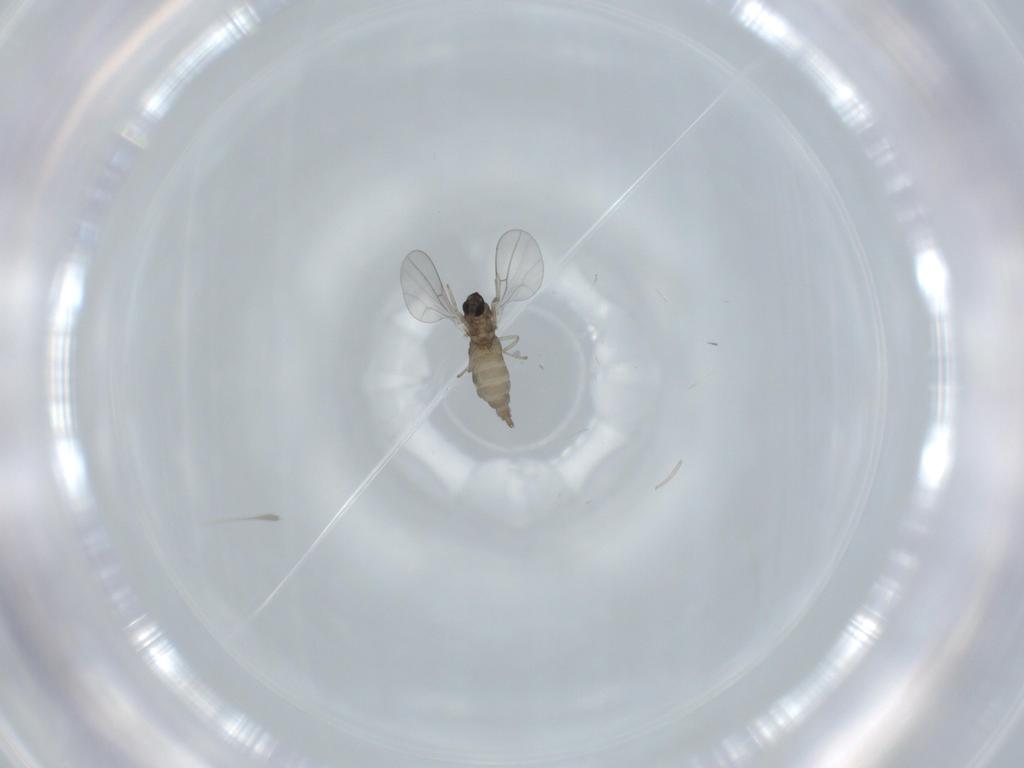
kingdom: Animalia
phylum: Arthropoda
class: Insecta
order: Diptera
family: Cecidomyiidae
